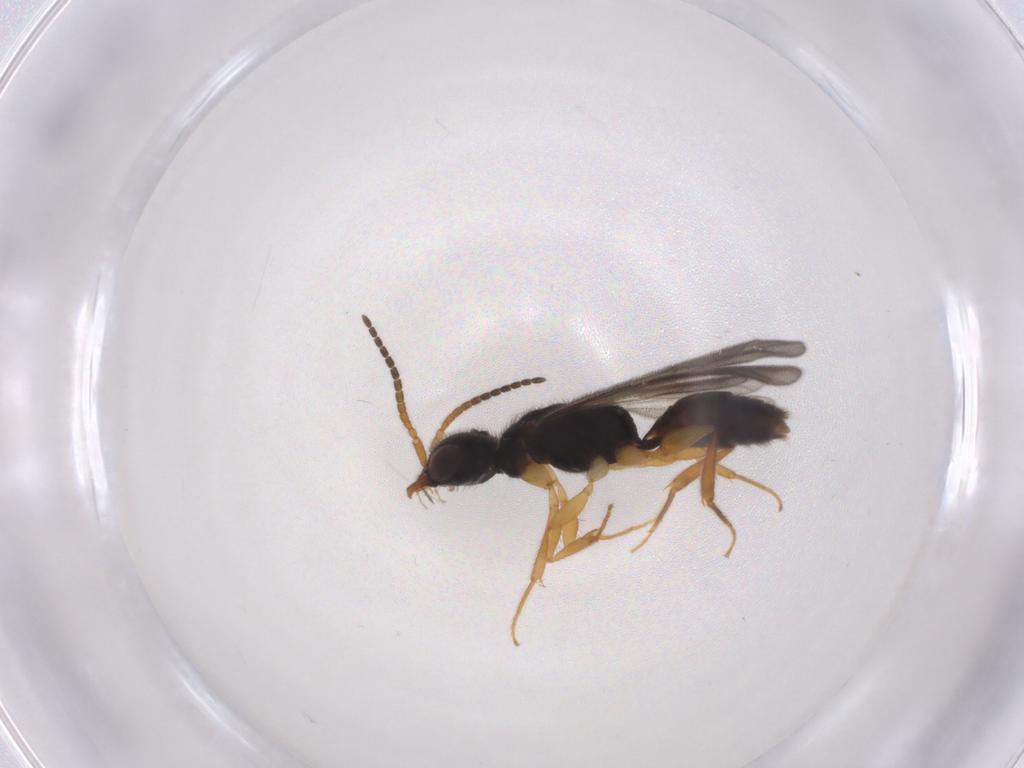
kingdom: Animalia
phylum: Arthropoda
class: Insecta
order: Hymenoptera
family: Bethylidae
